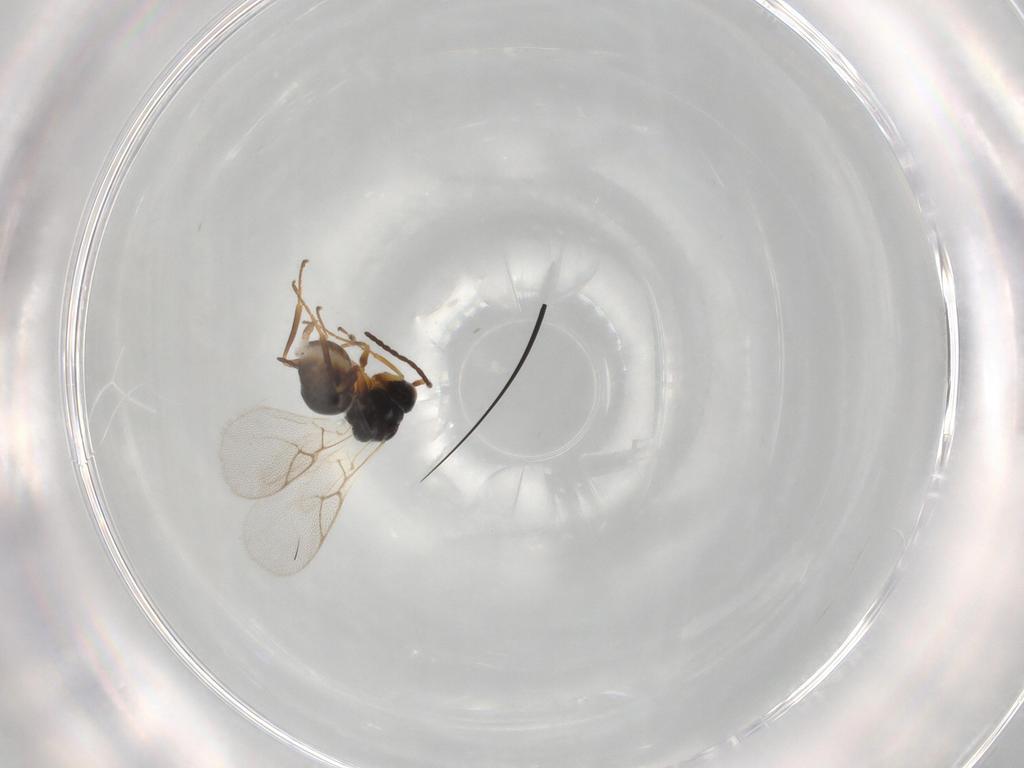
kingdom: Animalia
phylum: Arthropoda
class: Insecta
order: Hymenoptera
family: Figitidae
